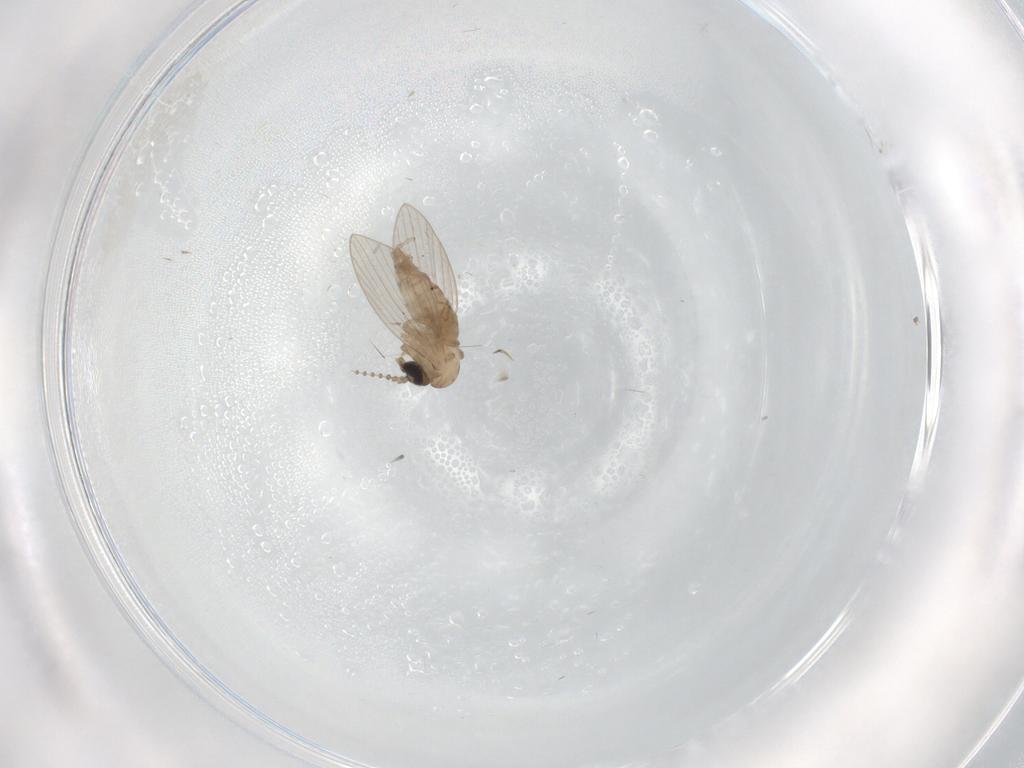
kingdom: Animalia
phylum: Arthropoda
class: Insecta
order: Diptera
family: Psychodidae
